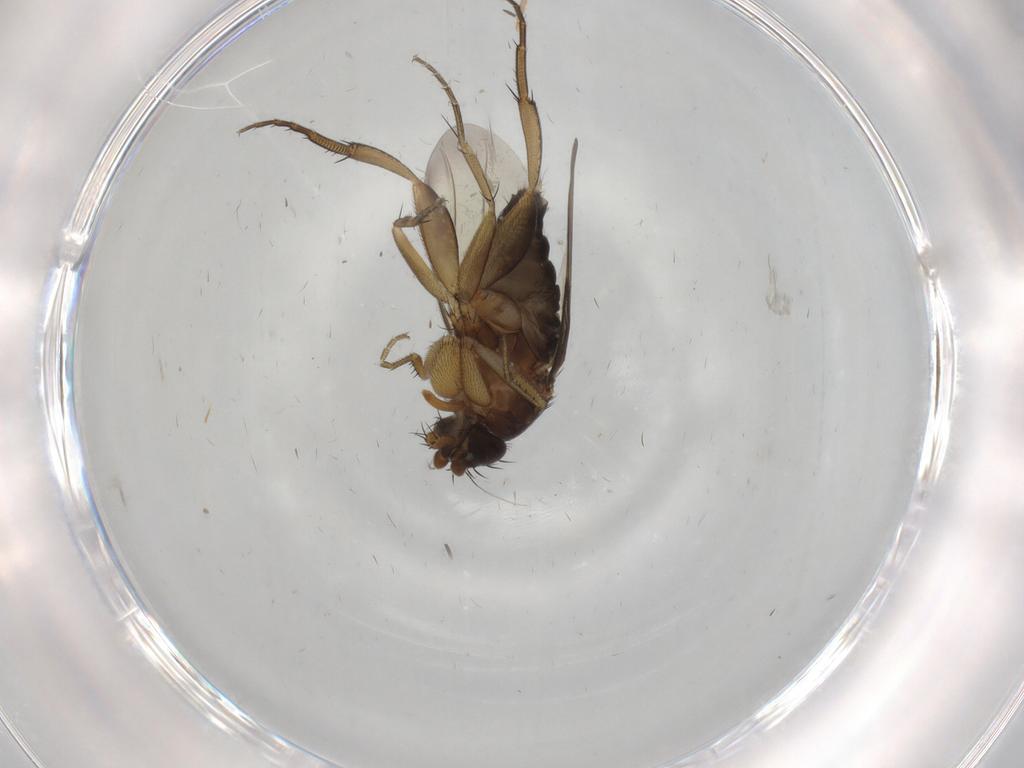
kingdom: Animalia
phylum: Arthropoda
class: Insecta
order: Diptera
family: Phoridae
